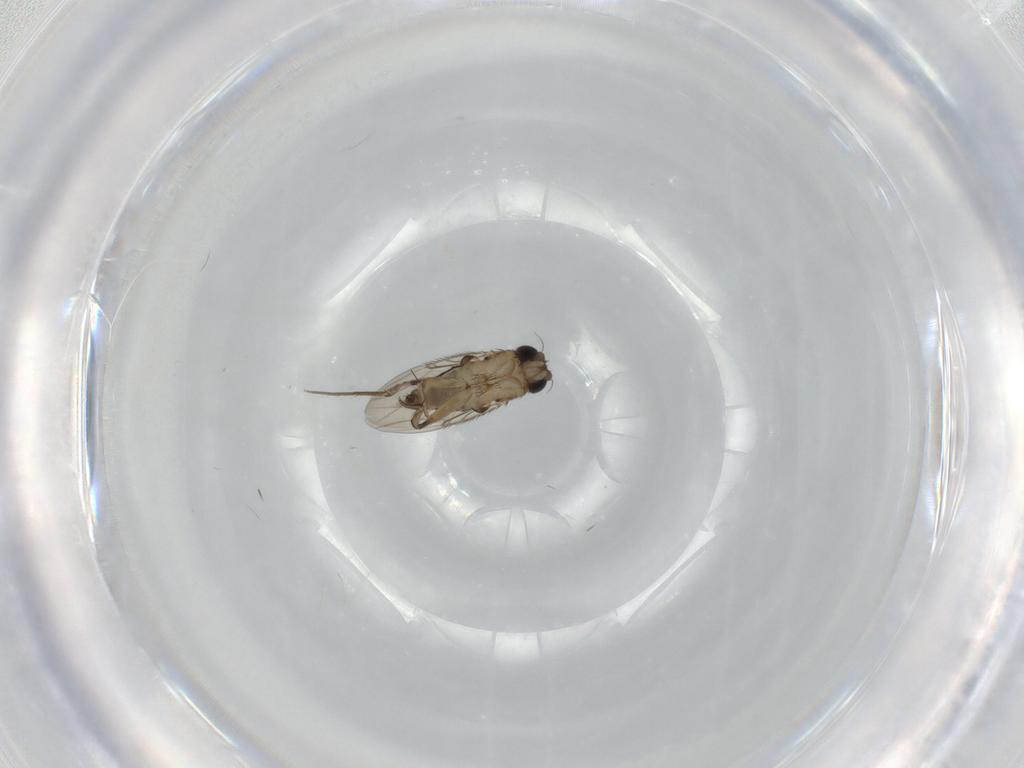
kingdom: Animalia
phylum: Arthropoda
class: Insecta
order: Diptera
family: Phoridae
